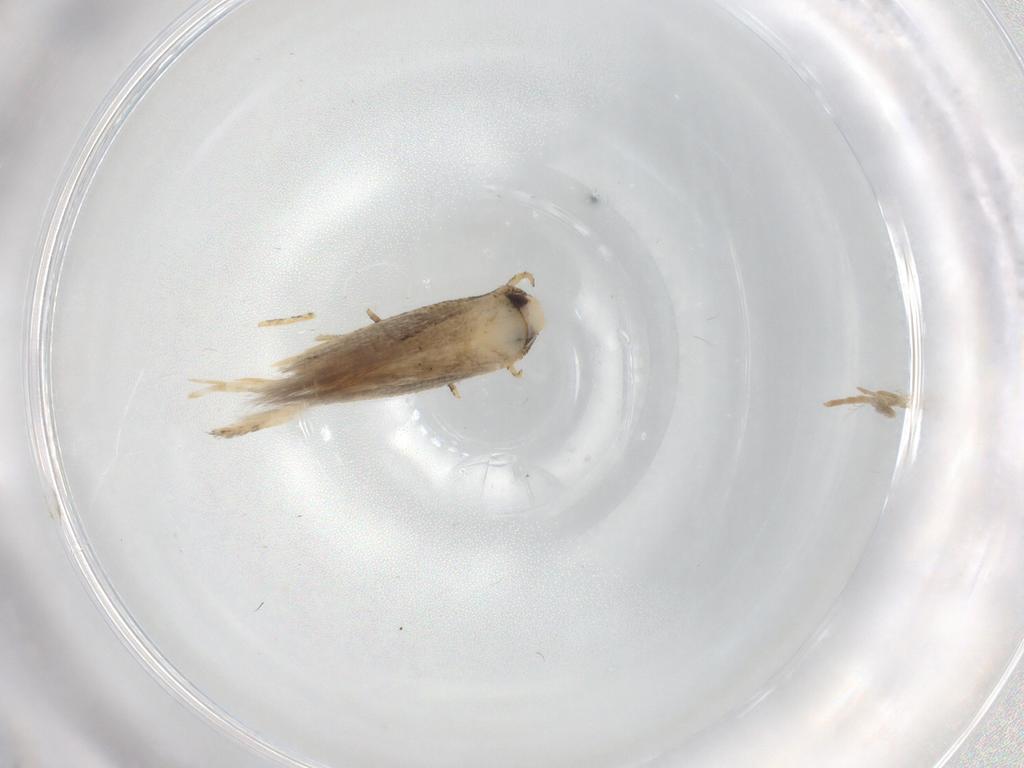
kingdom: Animalia
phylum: Arthropoda
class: Insecta
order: Lepidoptera
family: Cosmopterigidae
